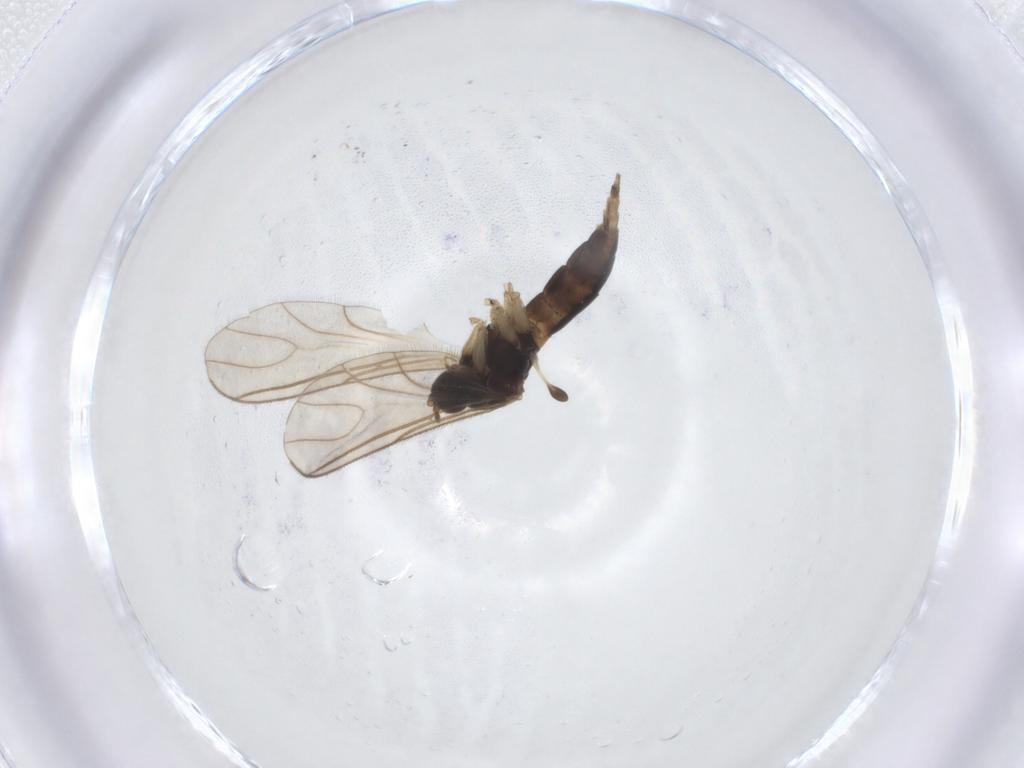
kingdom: Animalia
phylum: Arthropoda
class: Insecta
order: Diptera
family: Sciaridae
